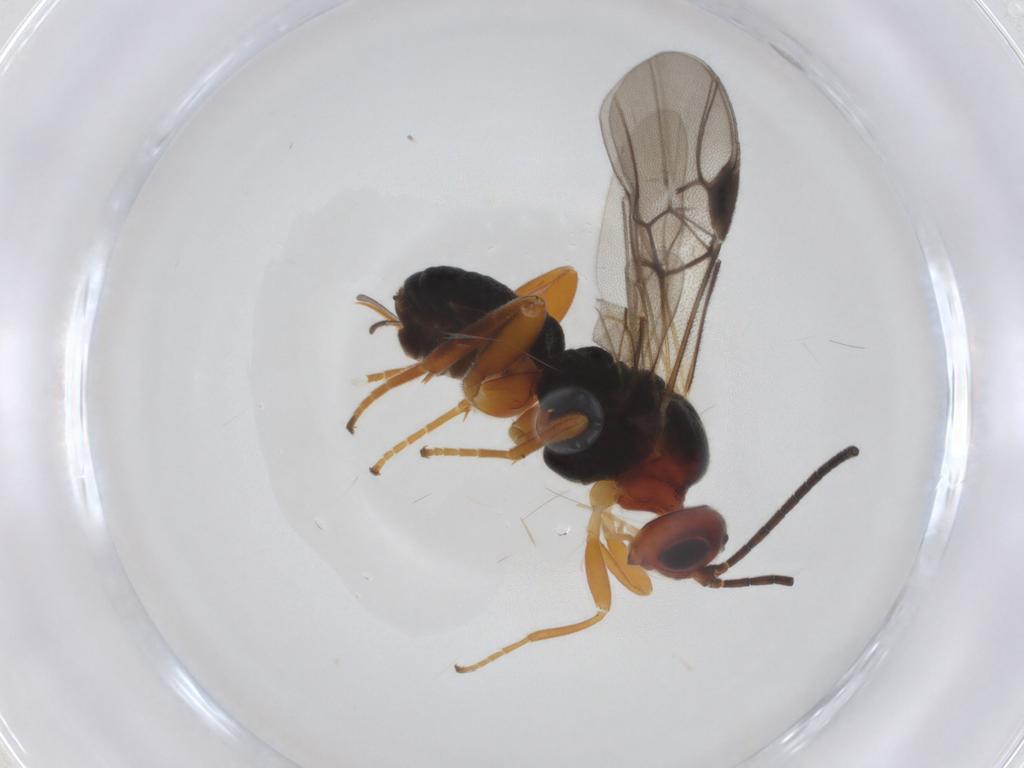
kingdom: Animalia
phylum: Arthropoda
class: Insecta
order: Hymenoptera
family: Braconidae
